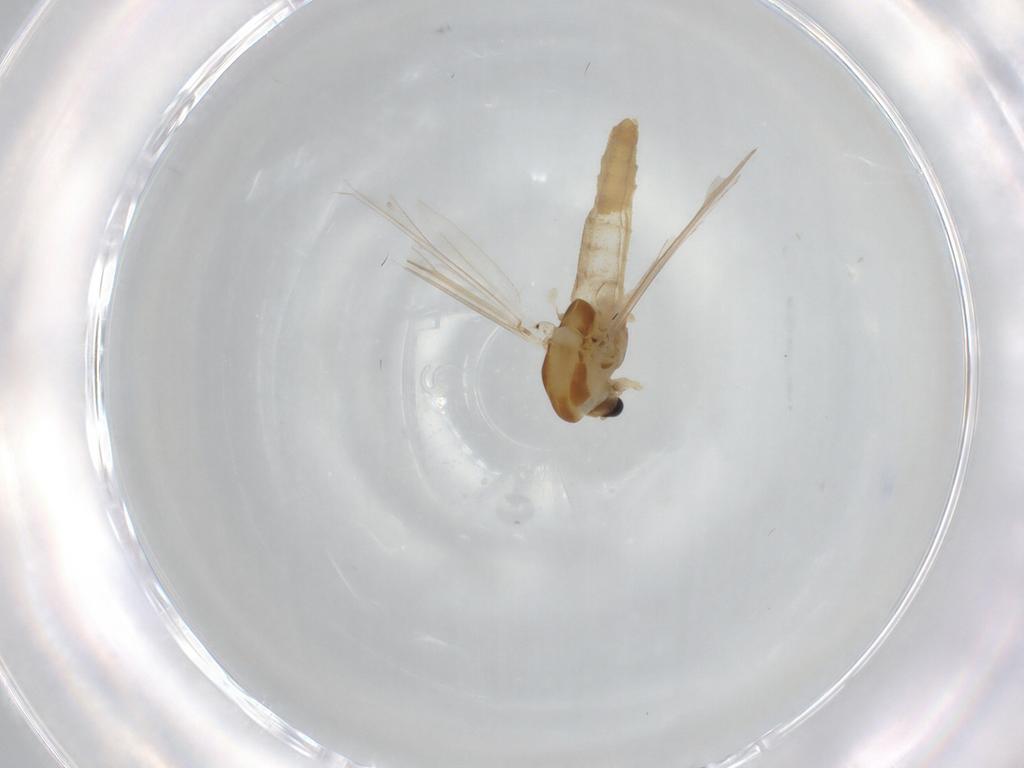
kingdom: Animalia
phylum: Arthropoda
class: Insecta
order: Diptera
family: Chironomidae
